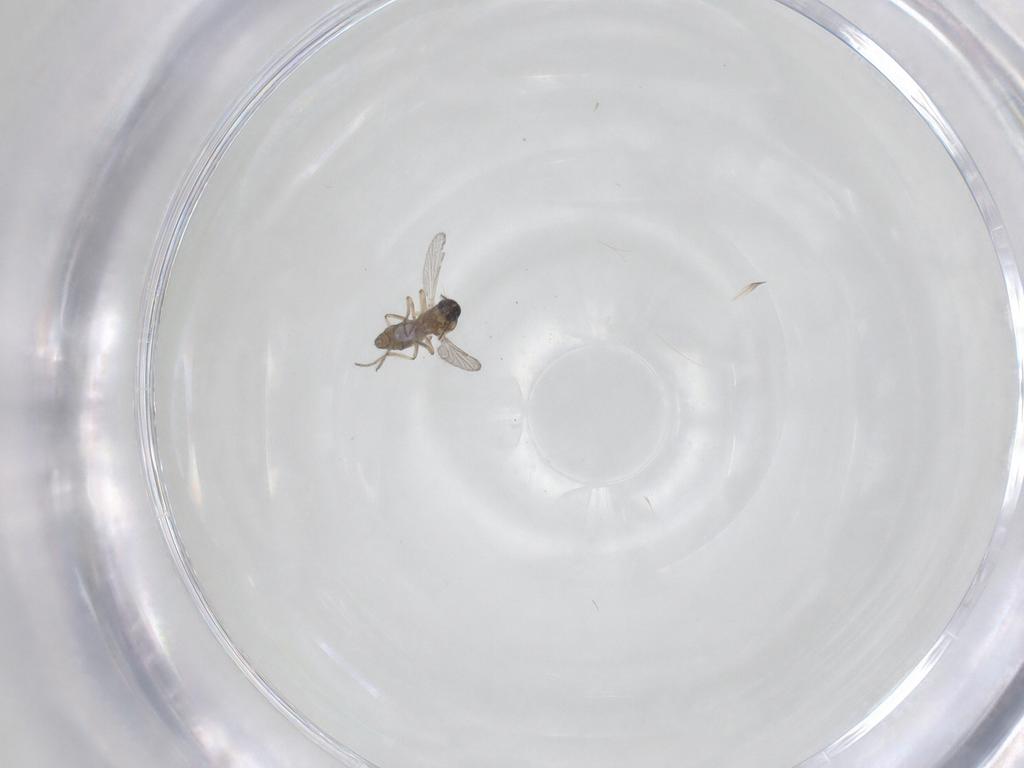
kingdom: Animalia
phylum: Arthropoda
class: Insecta
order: Diptera
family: Ceratopogonidae
